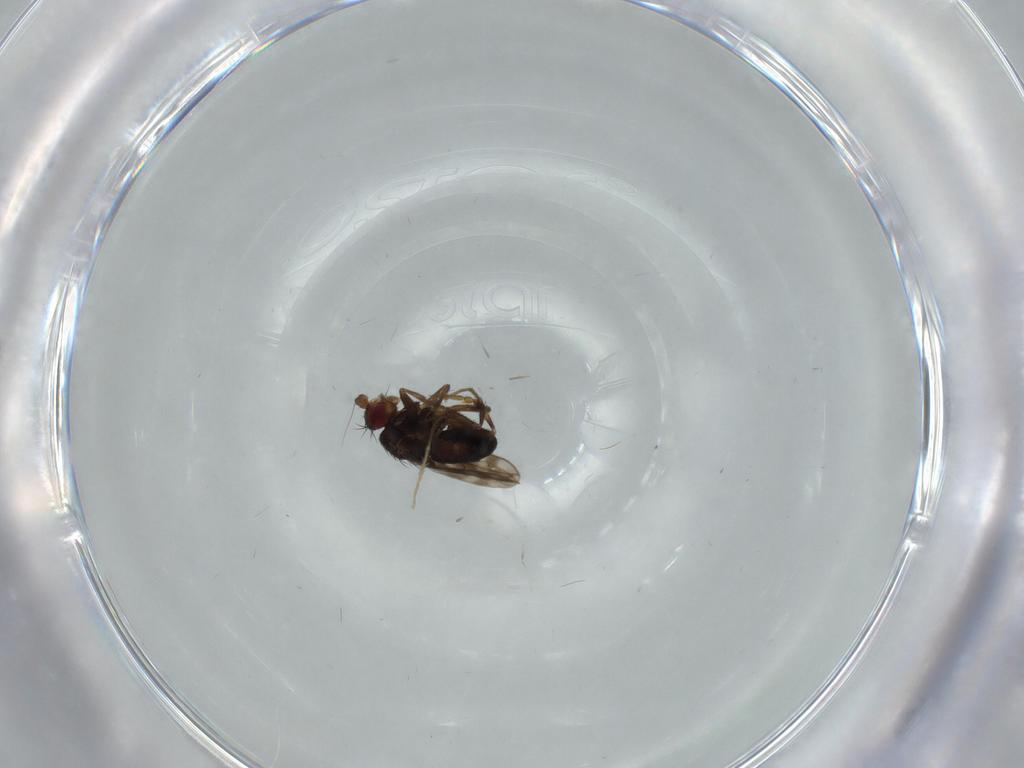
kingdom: Animalia
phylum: Arthropoda
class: Insecta
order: Diptera
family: Sphaeroceridae
